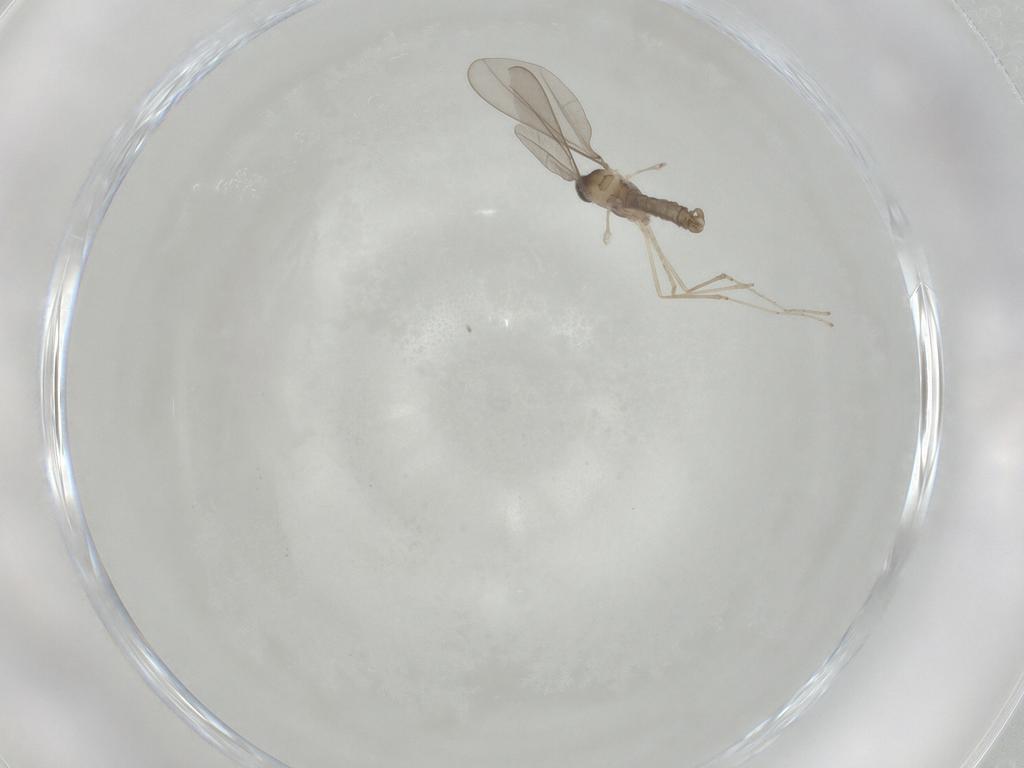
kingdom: Animalia
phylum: Arthropoda
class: Insecta
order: Diptera
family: Cecidomyiidae
